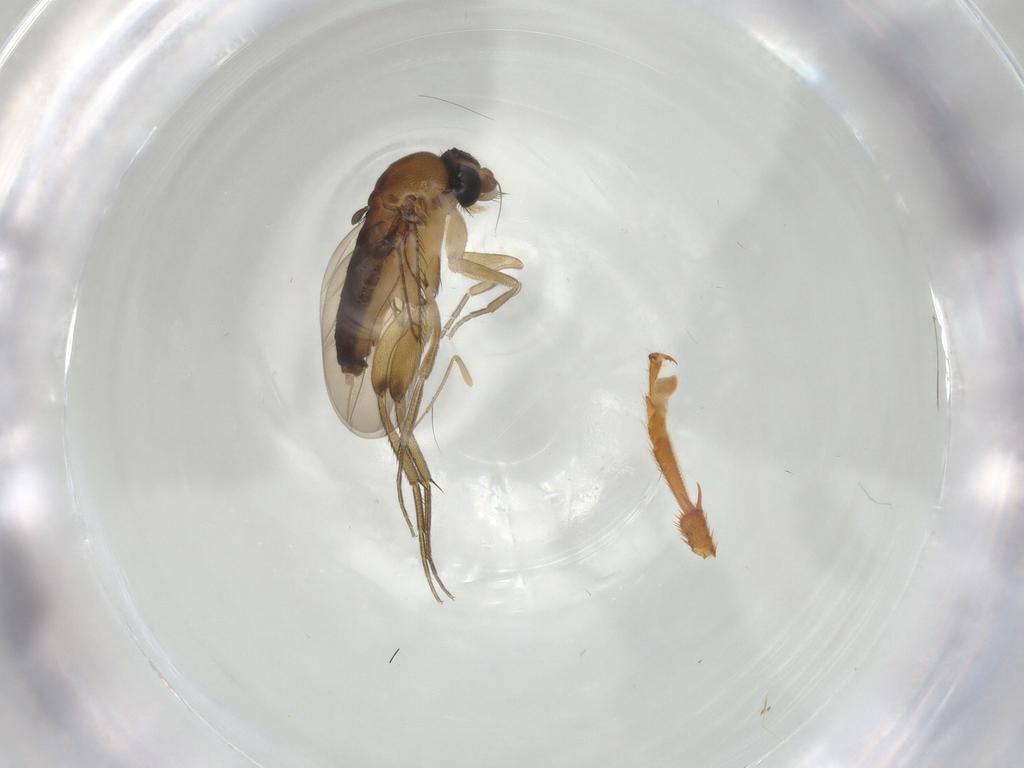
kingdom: Animalia
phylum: Arthropoda
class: Insecta
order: Diptera
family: Phoridae
